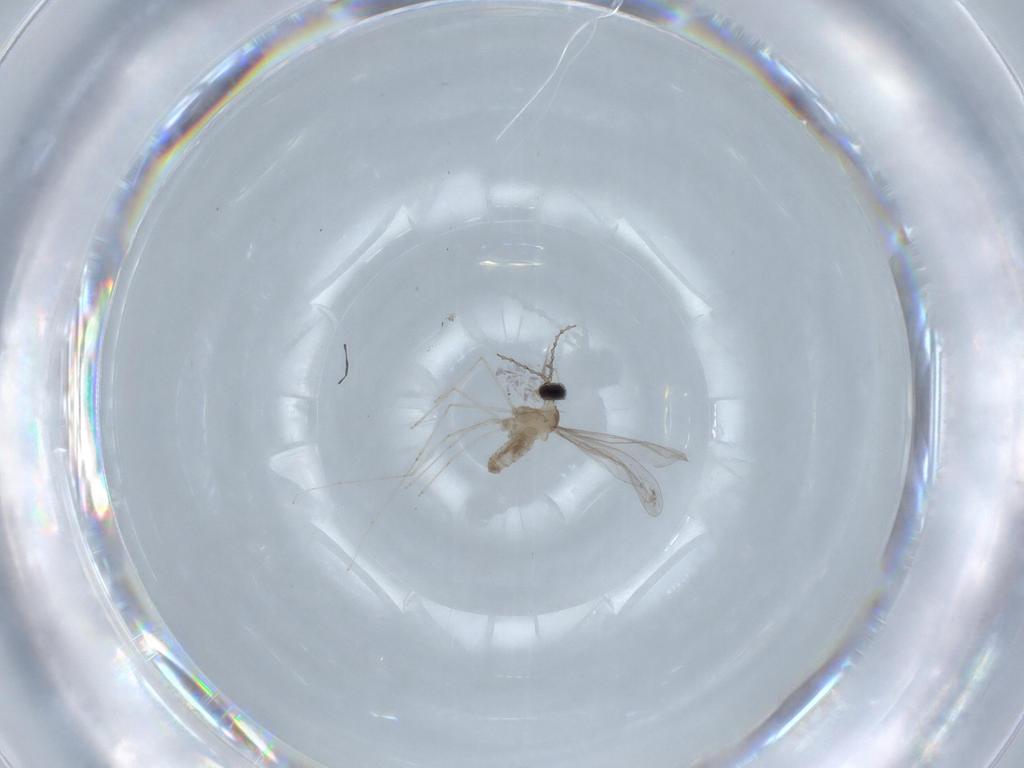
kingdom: Animalia
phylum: Arthropoda
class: Insecta
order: Diptera
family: Cecidomyiidae
